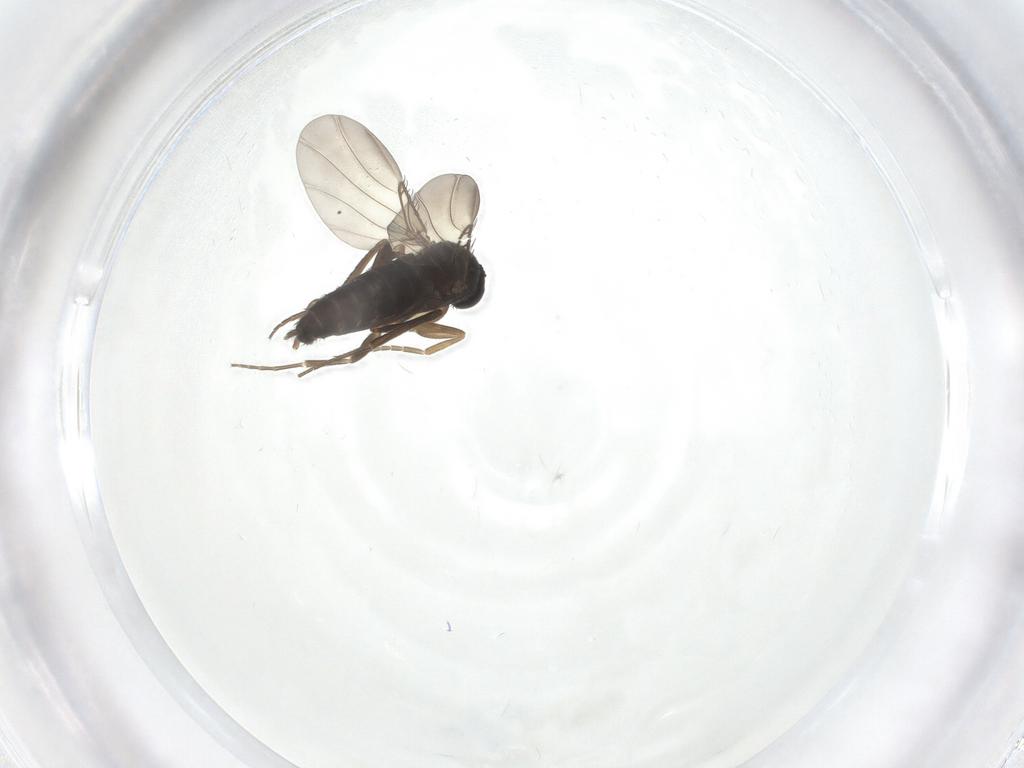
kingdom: Animalia
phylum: Arthropoda
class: Insecta
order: Diptera
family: Phoridae
